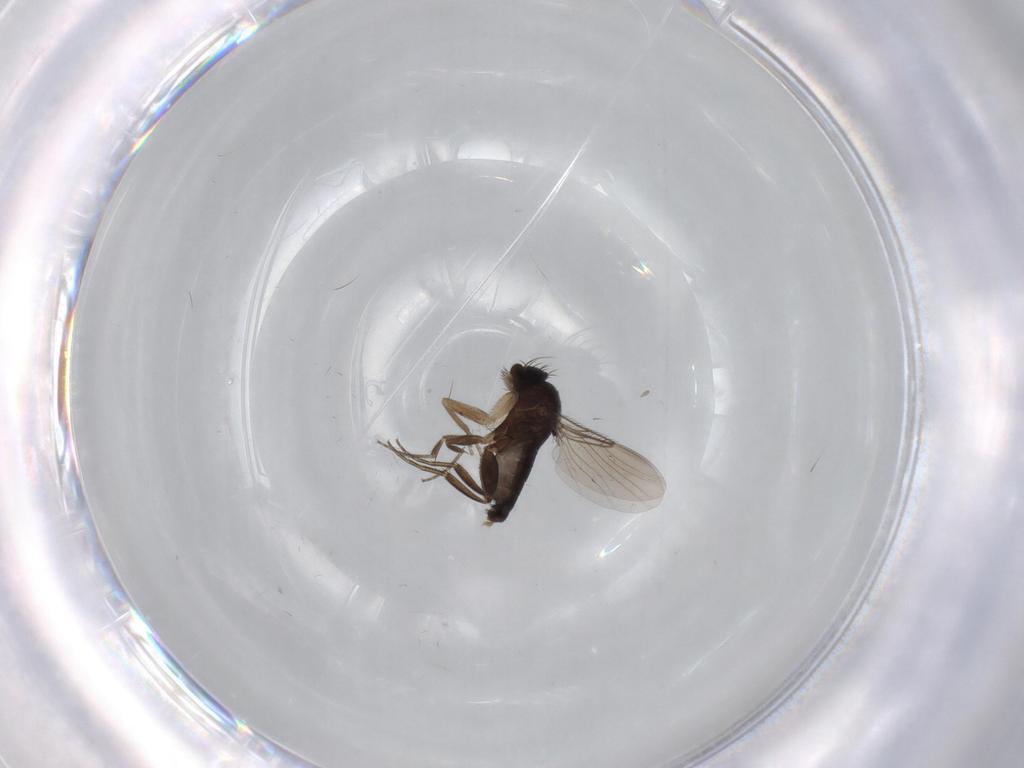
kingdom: Animalia
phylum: Arthropoda
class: Insecta
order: Diptera
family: Phoridae
